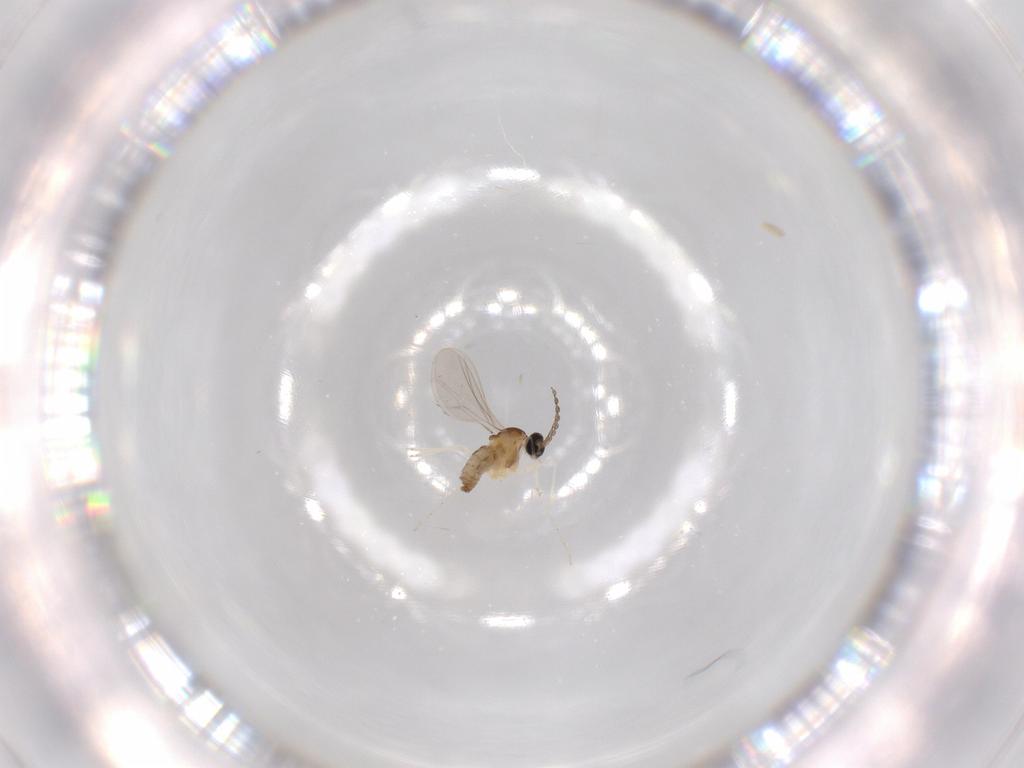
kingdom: Animalia
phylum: Arthropoda
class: Insecta
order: Diptera
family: Cecidomyiidae
